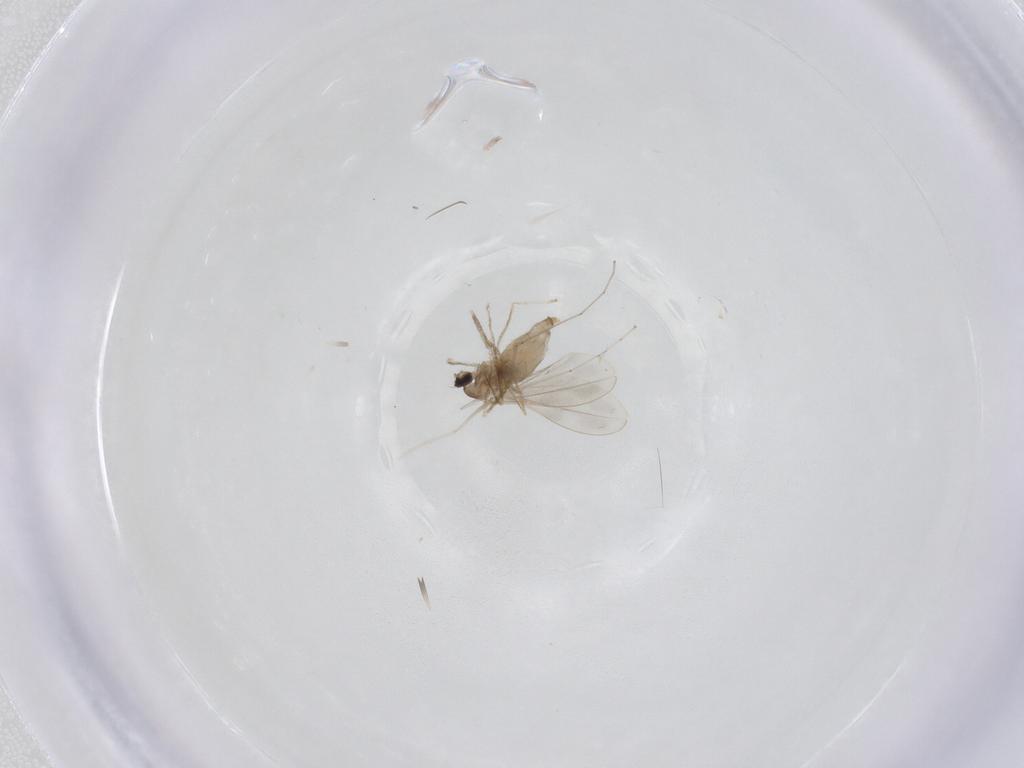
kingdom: Animalia
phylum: Arthropoda
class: Insecta
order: Diptera
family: Cecidomyiidae
